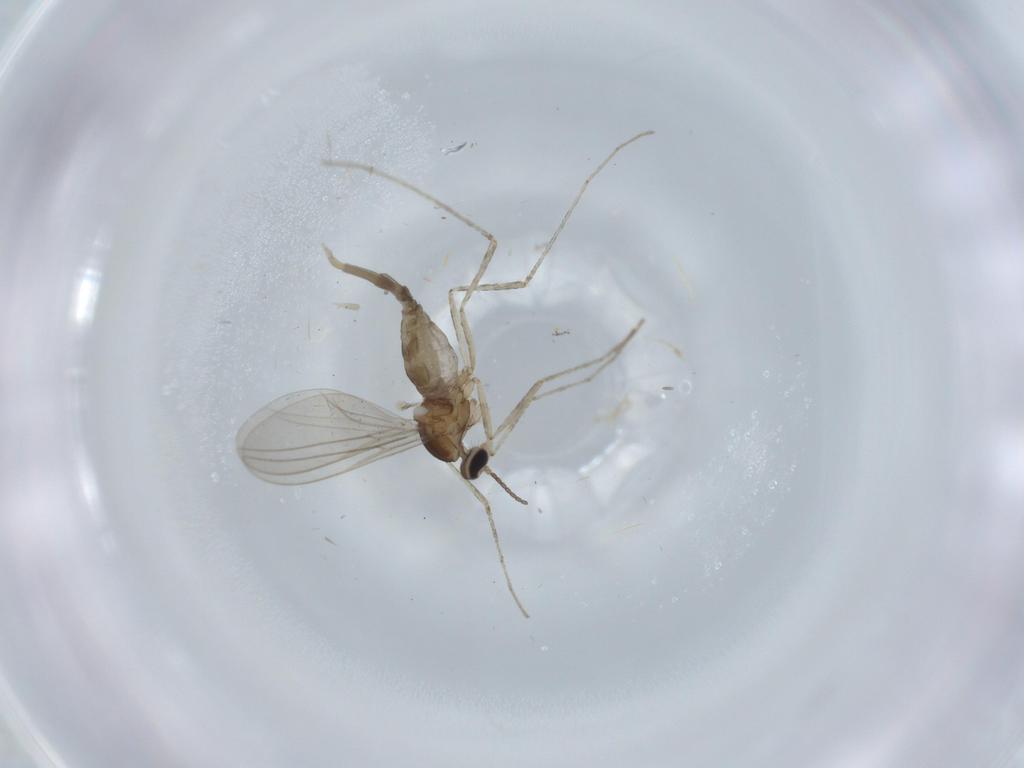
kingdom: Animalia
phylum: Arthropoda
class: Insecta
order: Diptera
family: Cecidomyiidae
